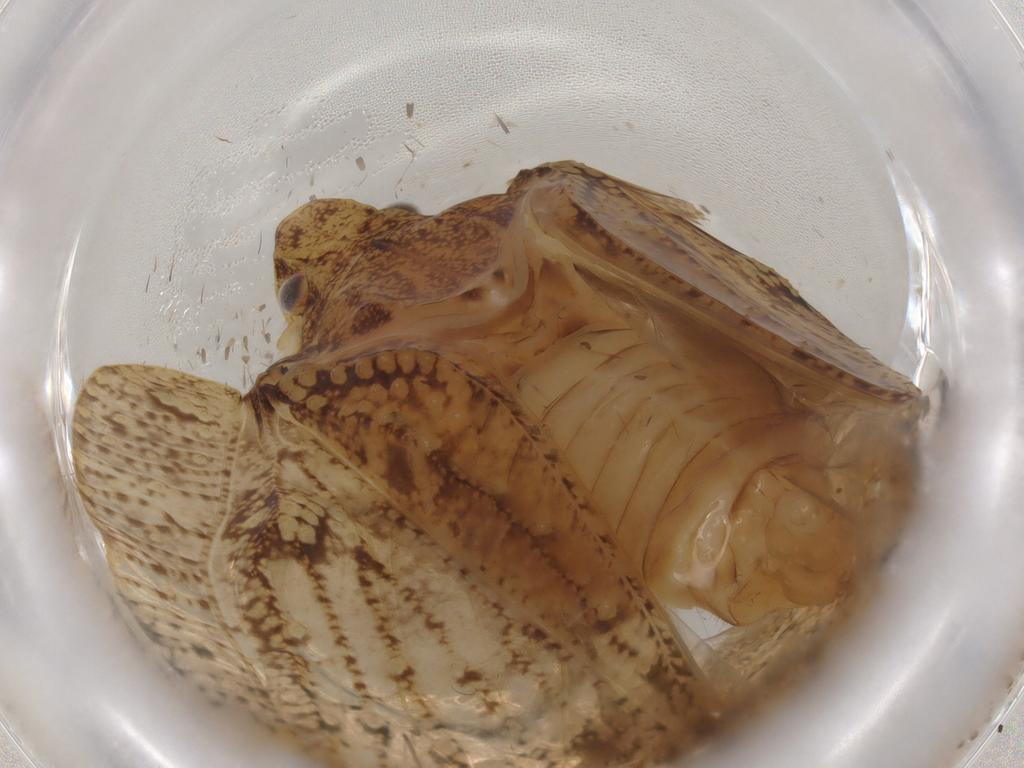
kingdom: Animalia
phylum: Arthropoda
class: Insecta
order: Hemiptera
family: Flatidae
